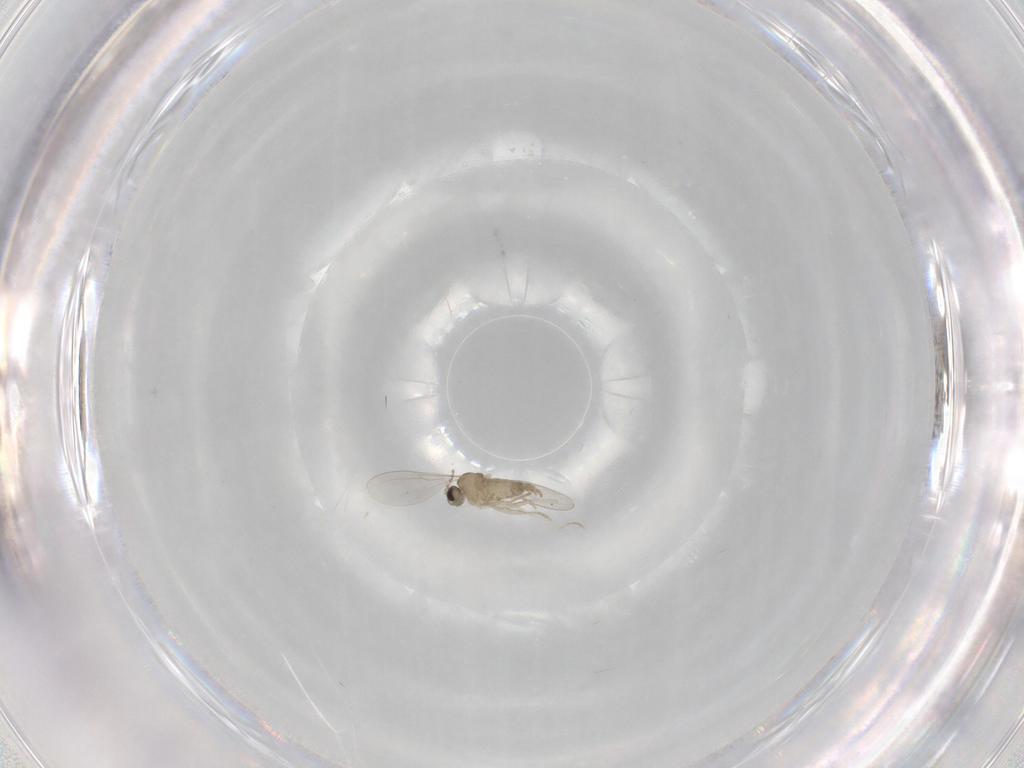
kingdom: Animalia
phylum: Arthropoda
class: Insecta
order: Diptera
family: Cecidomyiidae
